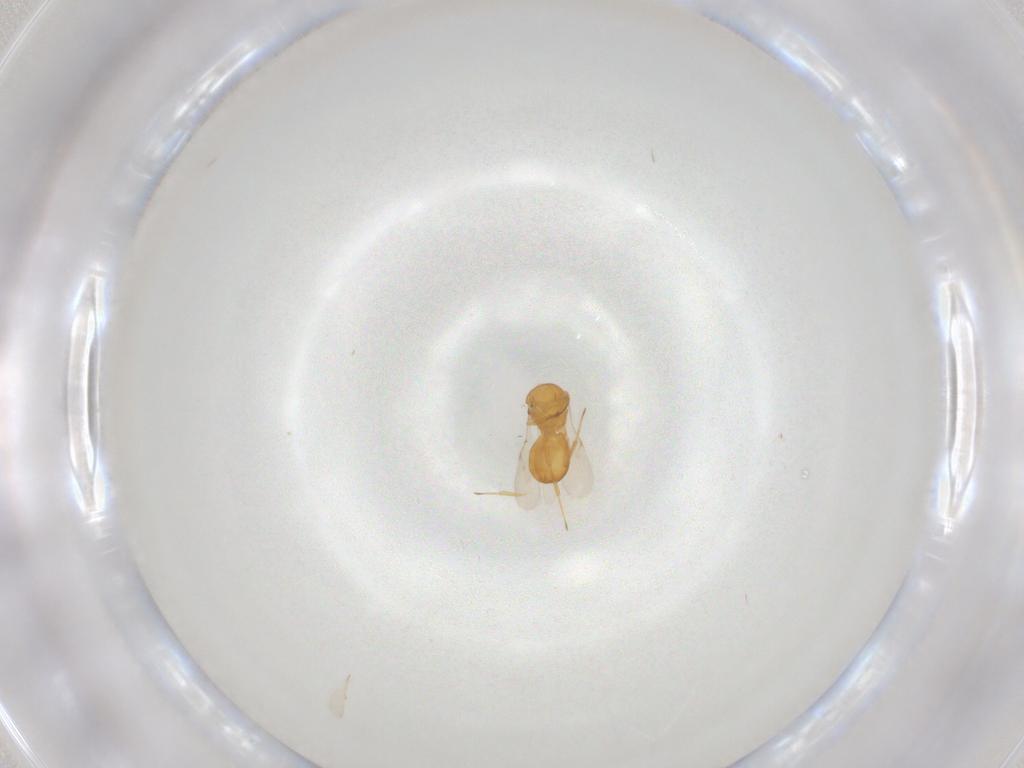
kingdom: Animalia
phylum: Arthropoda
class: Insecta
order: Hymenoptera
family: Scelionidae
